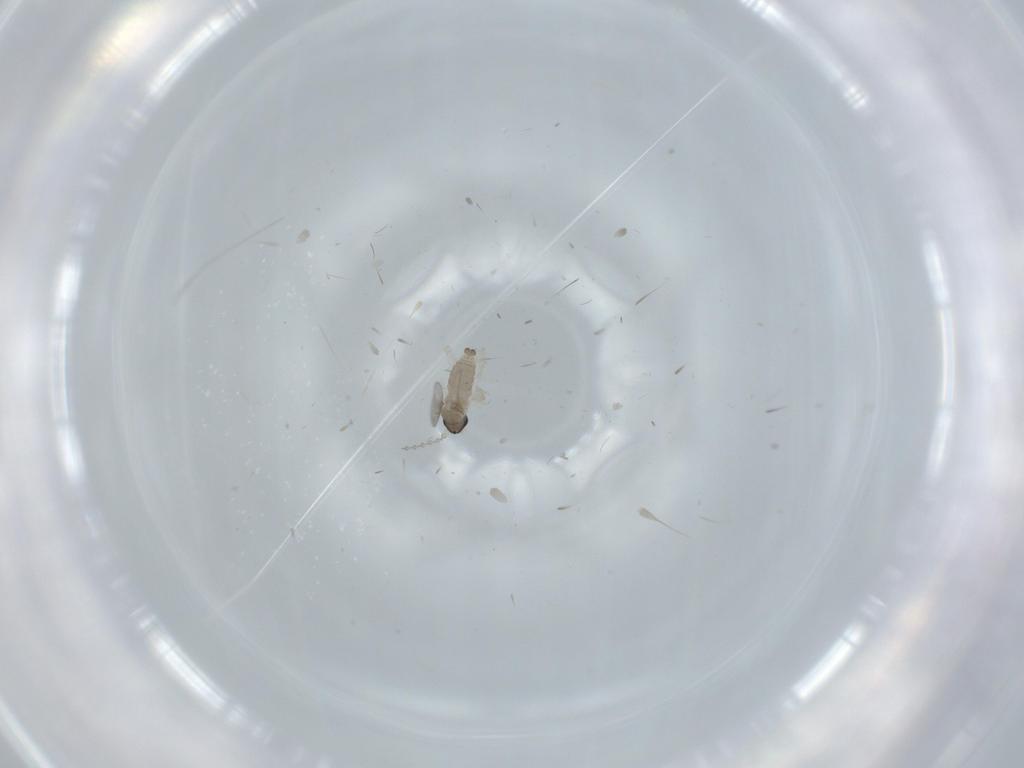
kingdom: Animalia
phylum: Arthropoda
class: Insecta
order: Diptera
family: Cecidomyiidae
